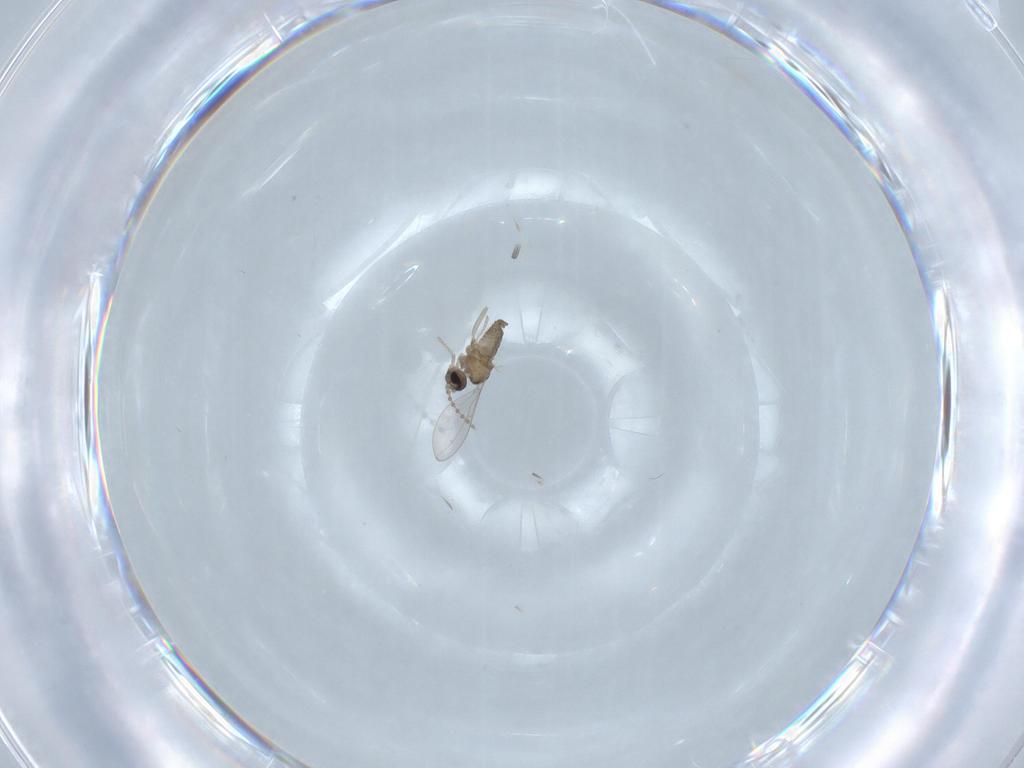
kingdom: Animalia
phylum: Arthropoda
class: Insecta
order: Diptera
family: Cecidomyiidae
